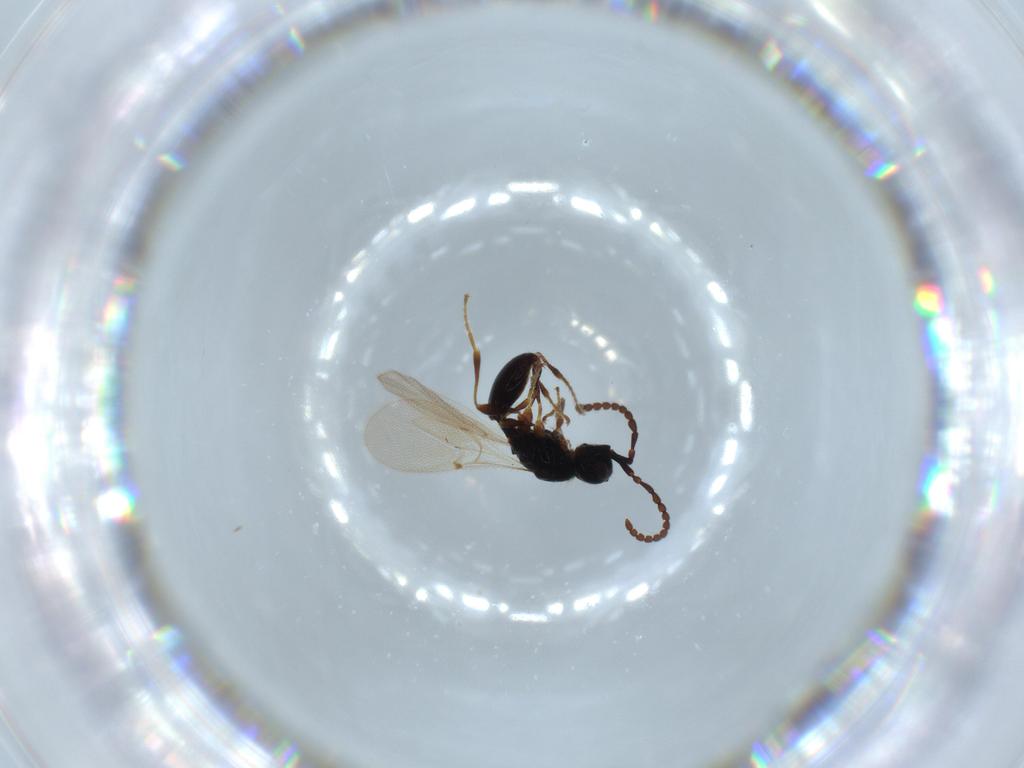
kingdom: Animalia
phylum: Arthropoda
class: Insecta
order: Hymenoptera
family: Diapriidae
